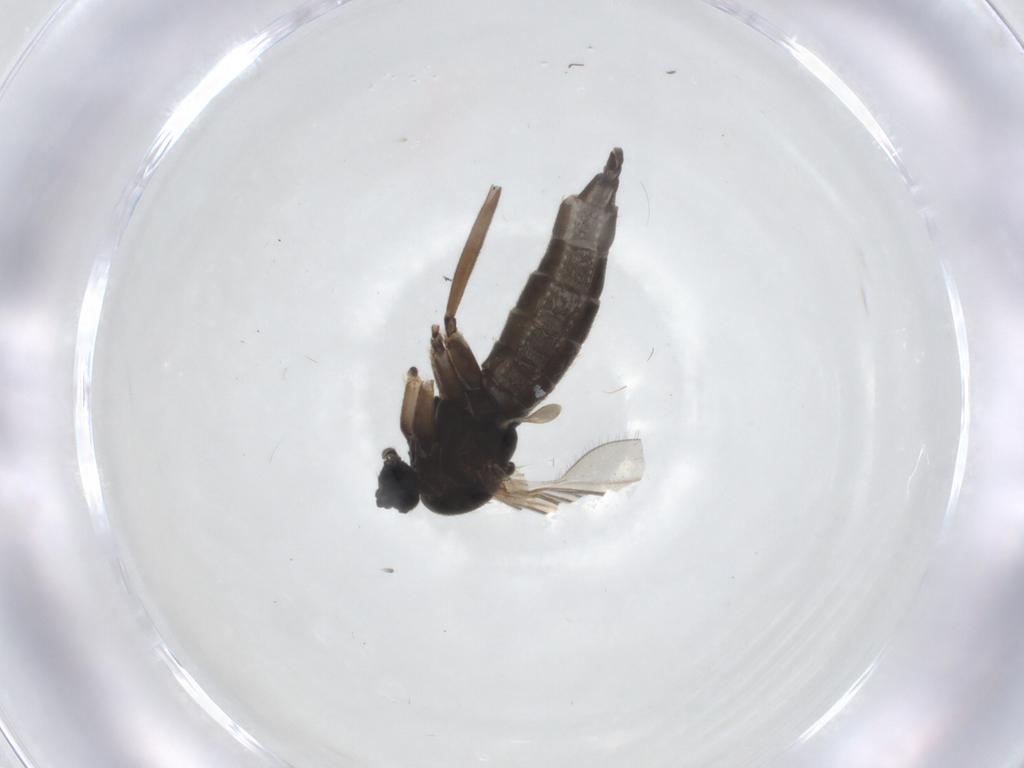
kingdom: Animalia
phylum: Arthropoda
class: Insecta
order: Diptera
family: Sciaridae
